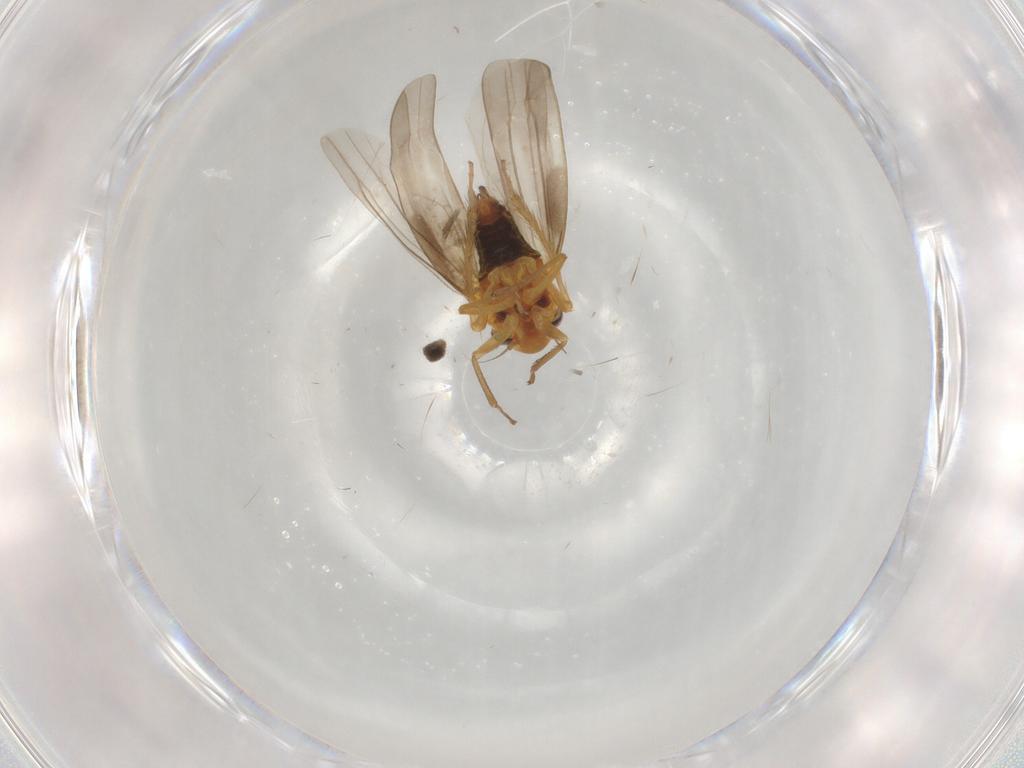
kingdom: Animalia
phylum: Arthropoda
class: Insecta
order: Hemiptera
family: Cicadellidae
